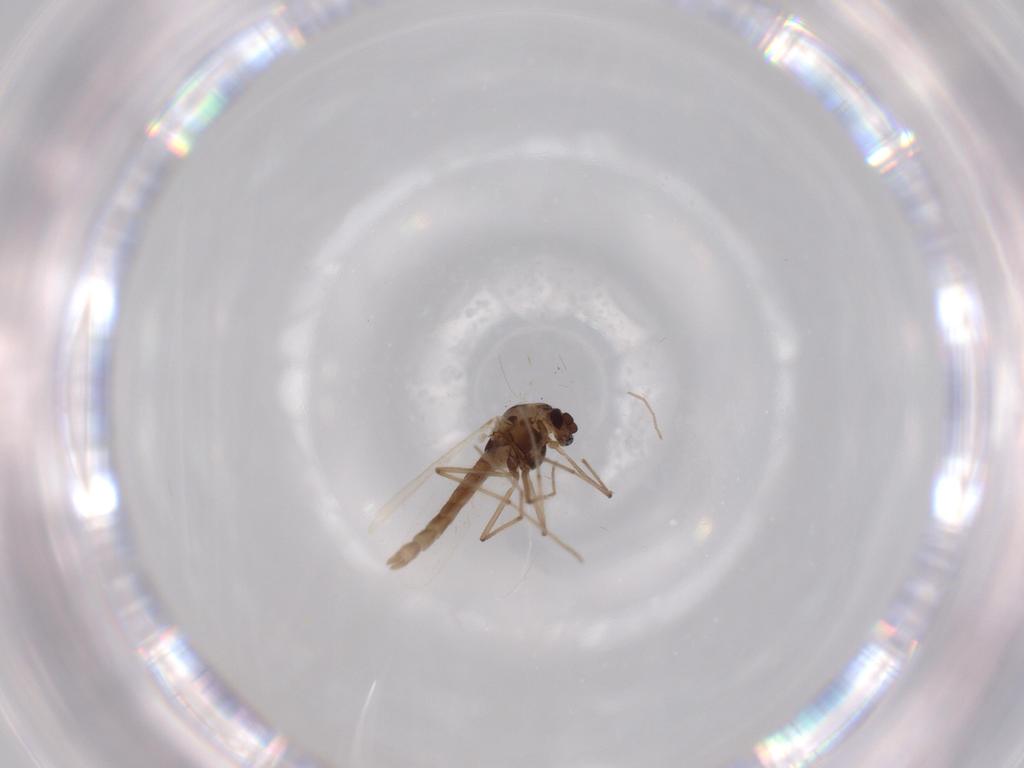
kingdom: Animalia
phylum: Arthropoda
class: Insecta
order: Diptera
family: Chironomidae
